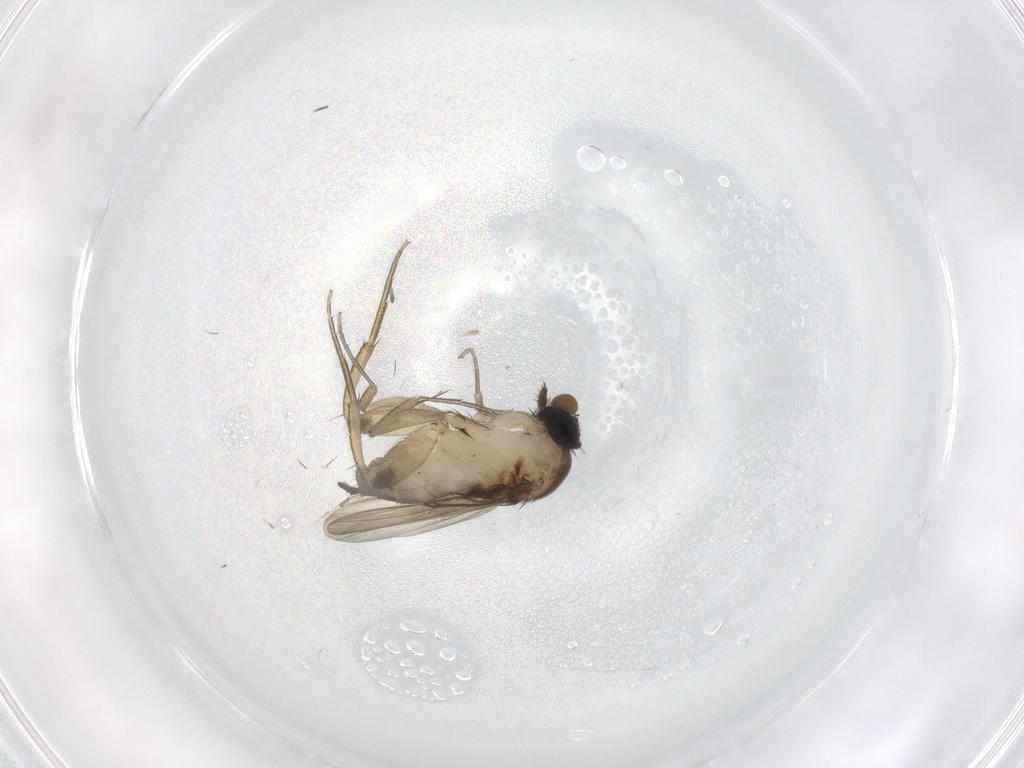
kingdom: Animalia
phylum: Arthropoda
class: Insecta
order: Diptera
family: Phoridae
